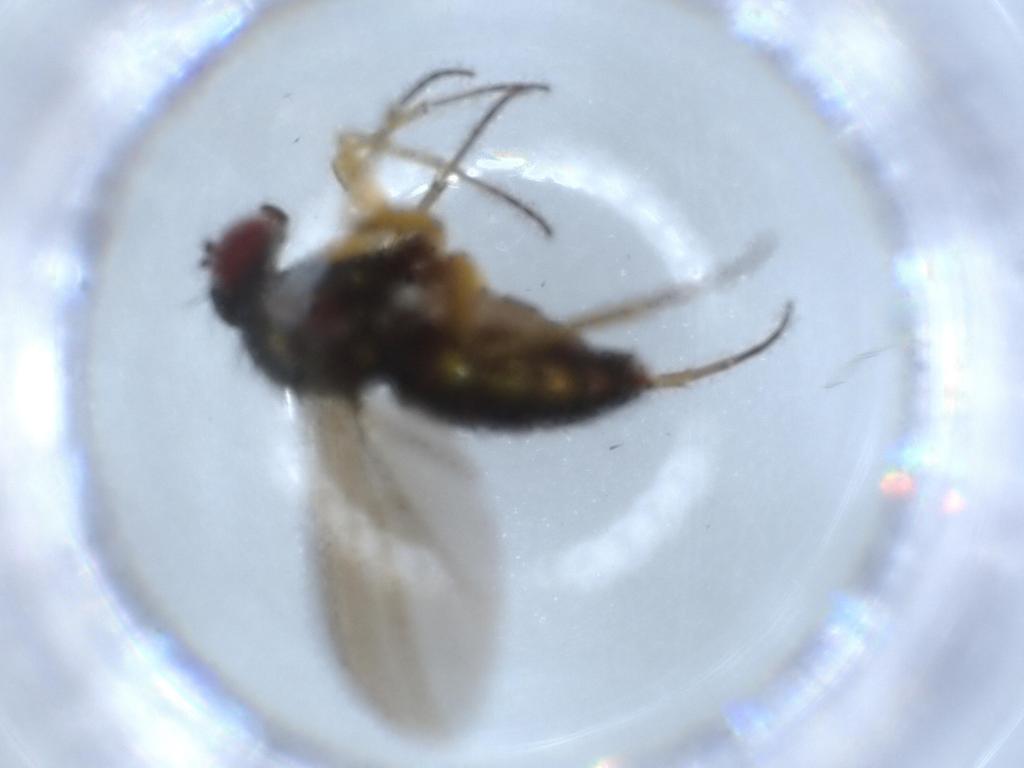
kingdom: Animalia
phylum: Arthropoda
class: Insecta
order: Diptera
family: Dolichopodidae
